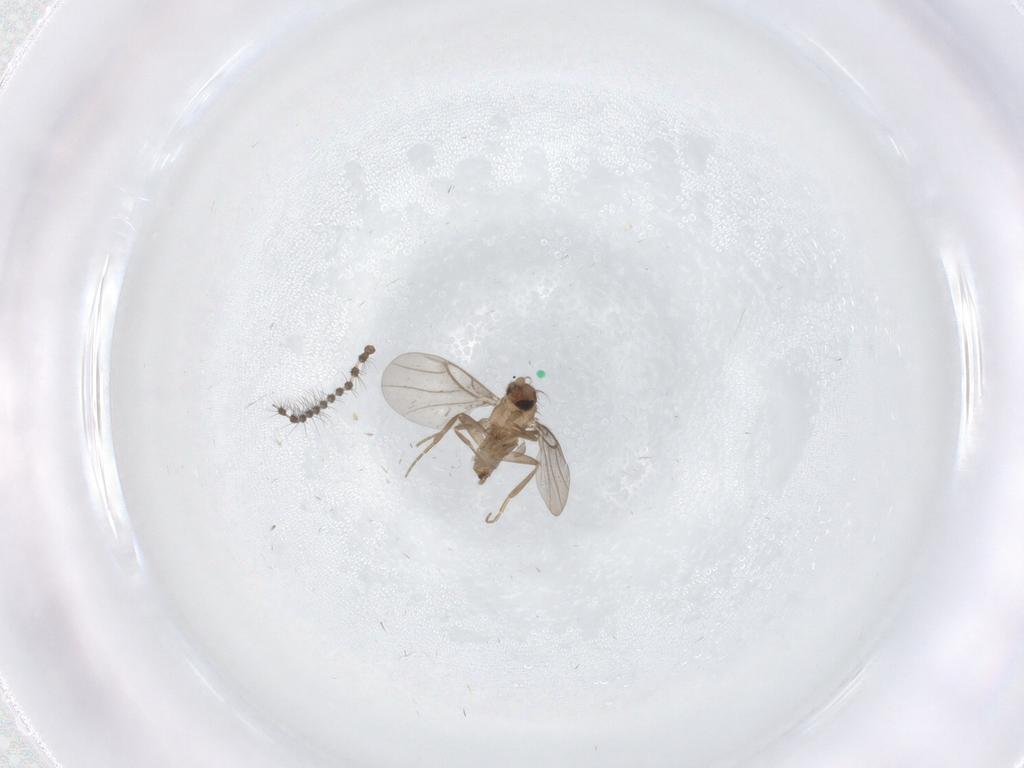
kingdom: Animalia
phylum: Arthropoda
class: Insecta
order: Diptera
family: Sciaridae
